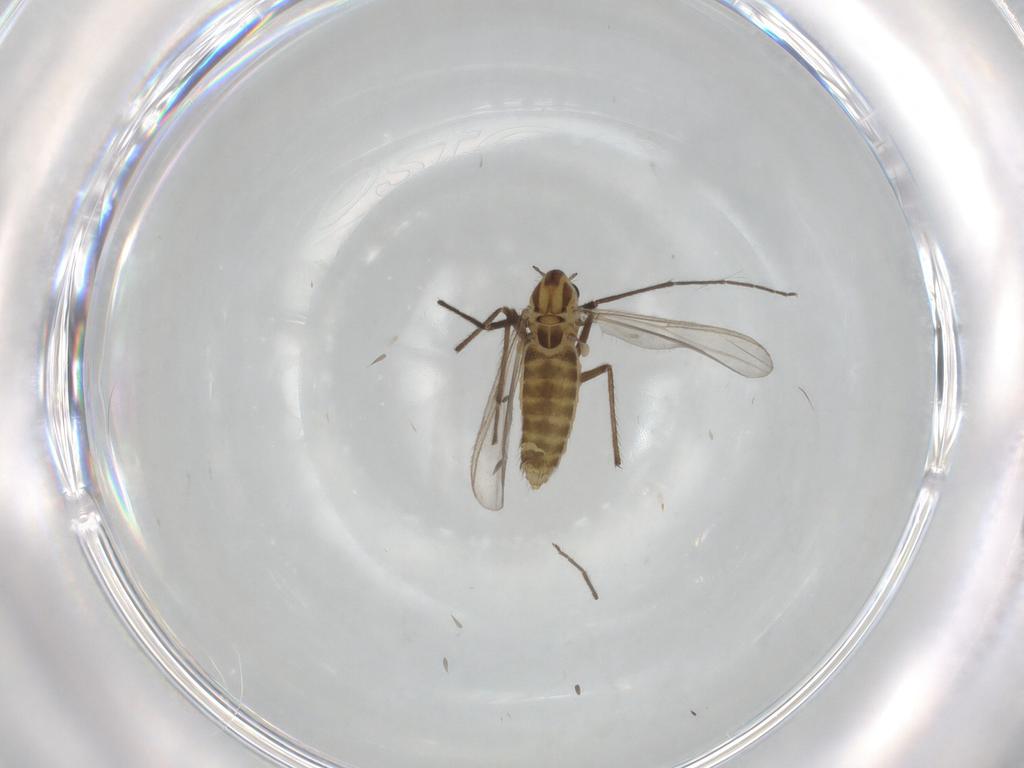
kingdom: Animalia
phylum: Arthropoda
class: Insecta
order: Diptera
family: Chironomidae
